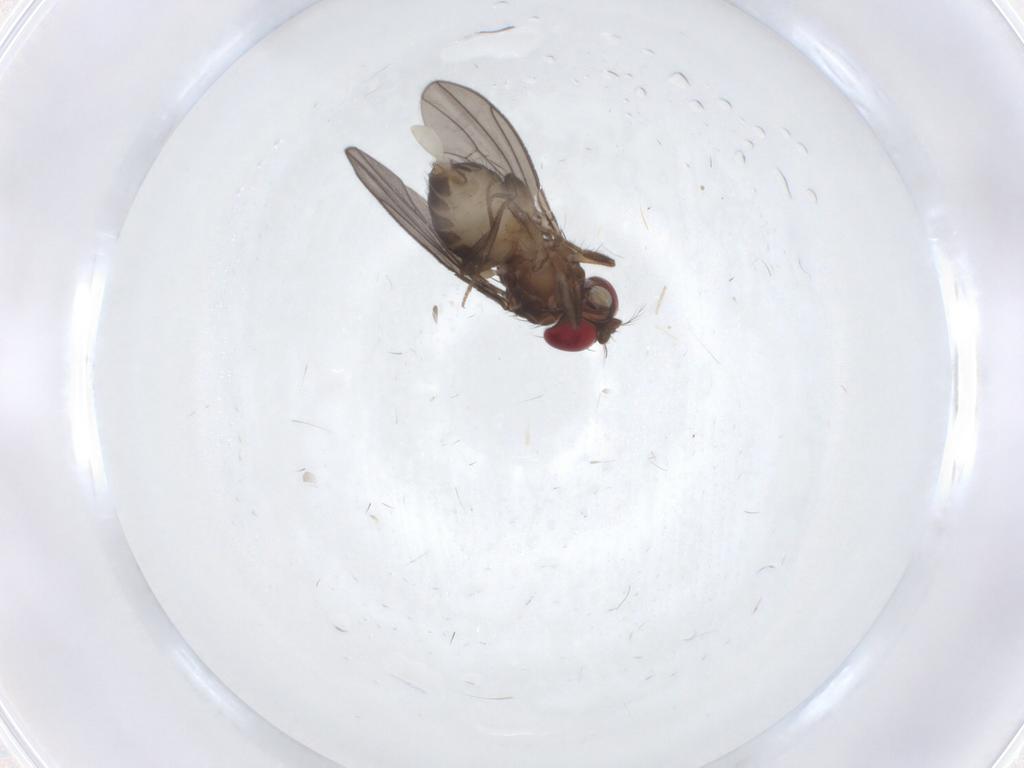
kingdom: Animalia
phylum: Arthropoda
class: Insecta
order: Diptera
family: Drosophilidae
